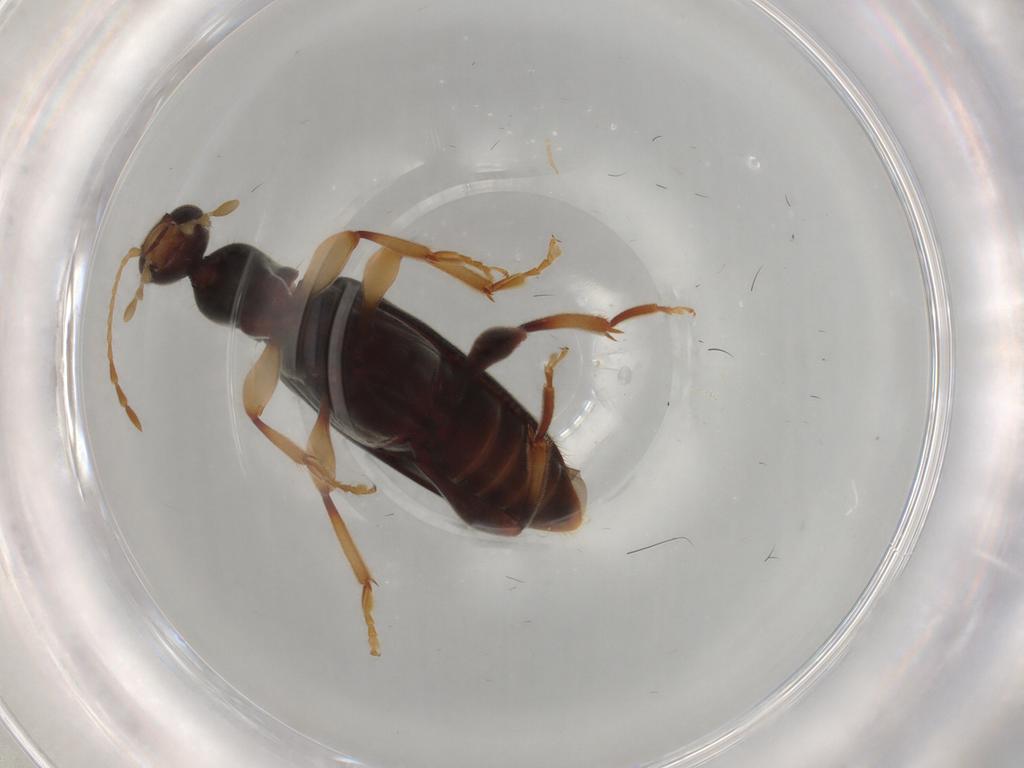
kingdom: Animalia
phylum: Arthropoda
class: Insecta
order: Coleoptera
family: Anthicidae
